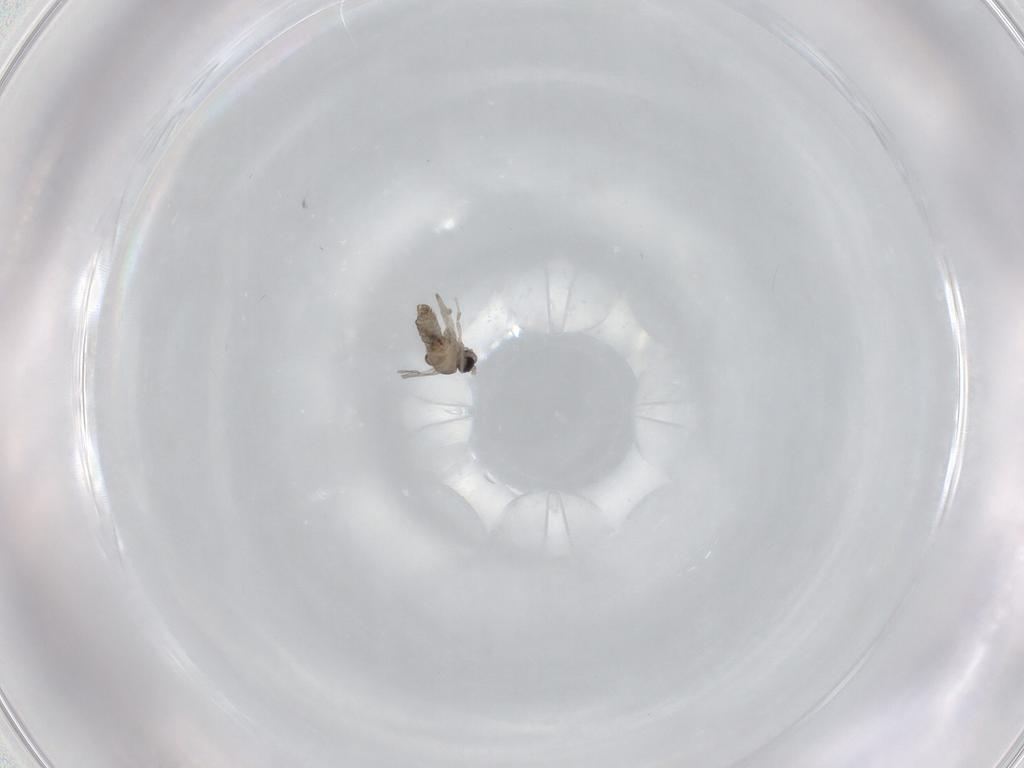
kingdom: Animalia
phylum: Arthropoda
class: Insecta
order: Diptera
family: Cecidomyiidae
